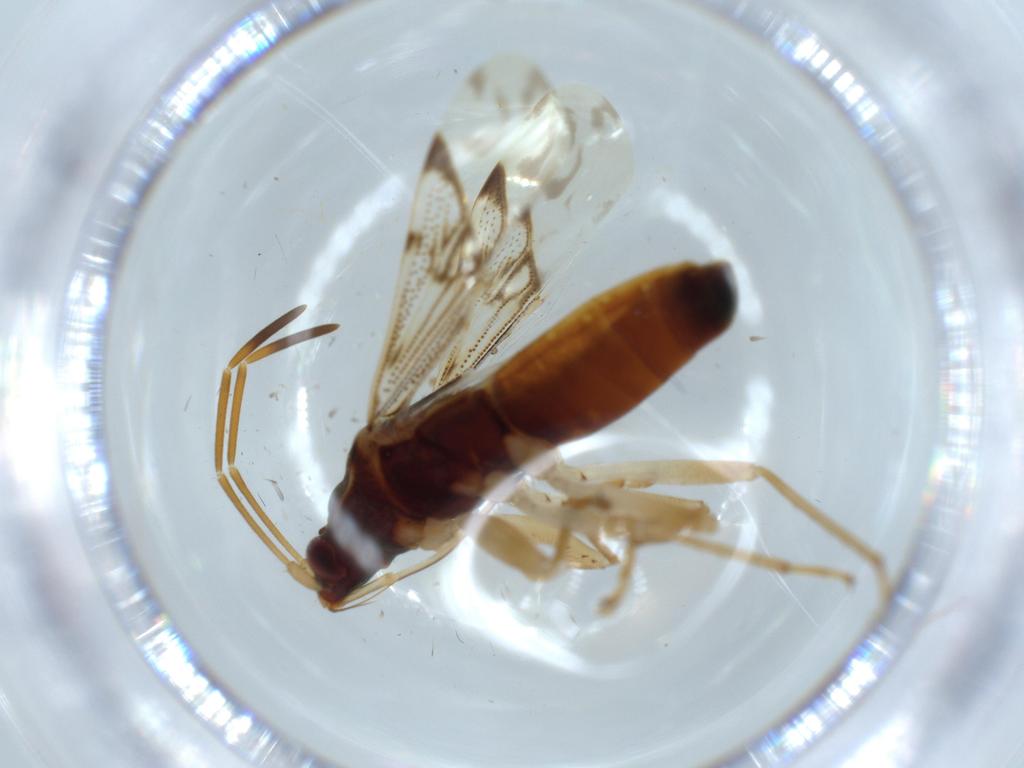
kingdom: Animalia
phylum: Arthropoda
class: Insecta
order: Hemiptera
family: Rhyparochromidae
